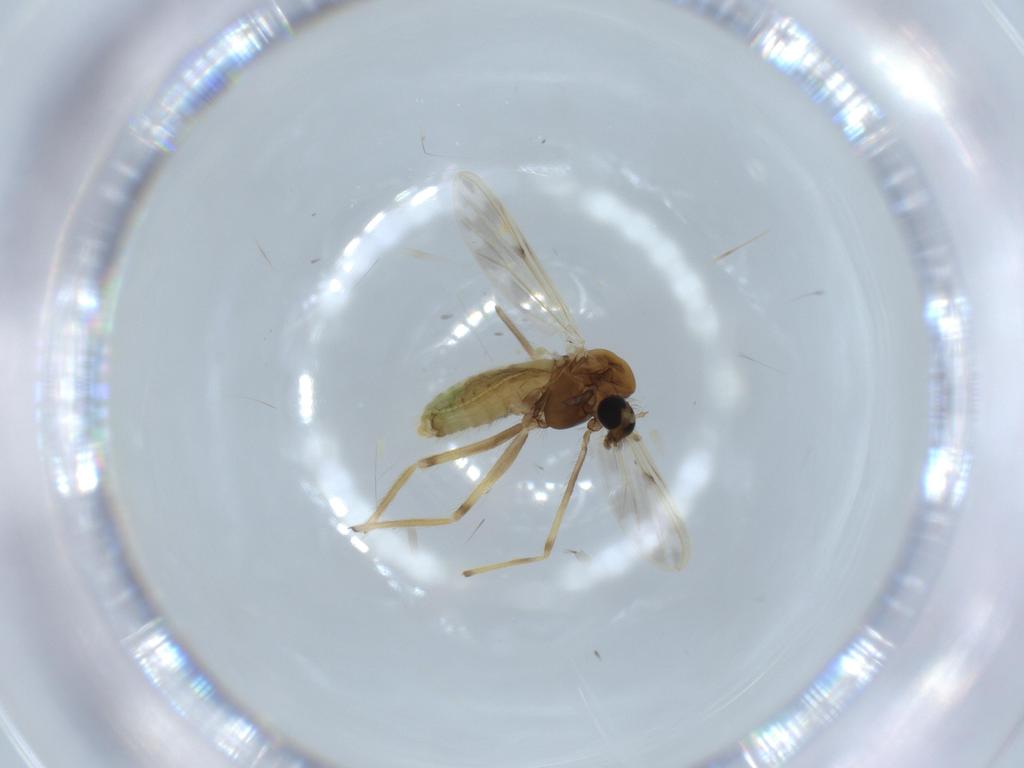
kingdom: Animalia
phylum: Arthropoda
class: Insecta
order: Diptera
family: Chironomidae
